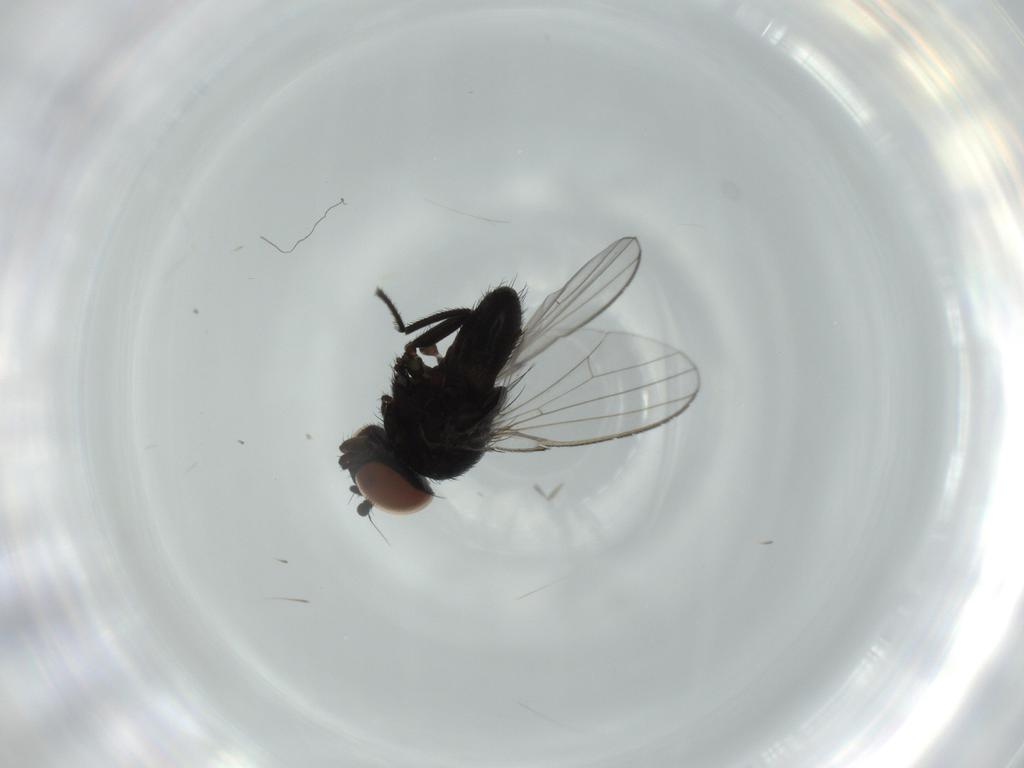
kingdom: Animalia
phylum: Arthropoda
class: Insecta
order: Diptera
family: Milichiidae
